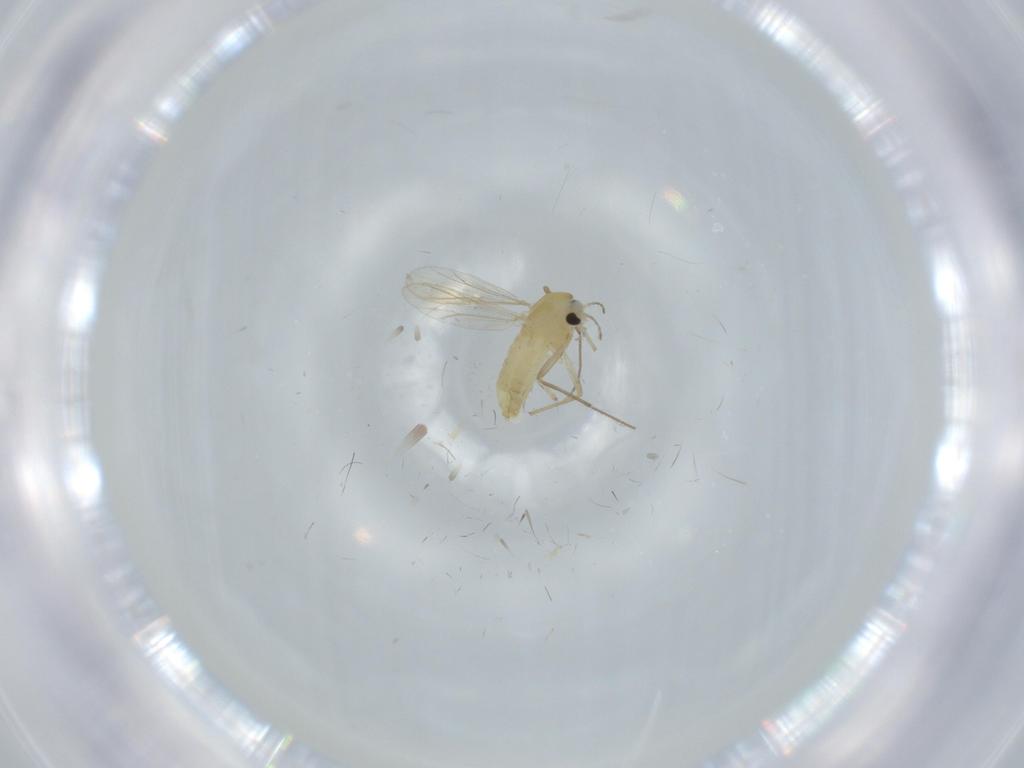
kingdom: Animalia
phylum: Arthropoda
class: Insecta
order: Diptera
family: Chironomidae
